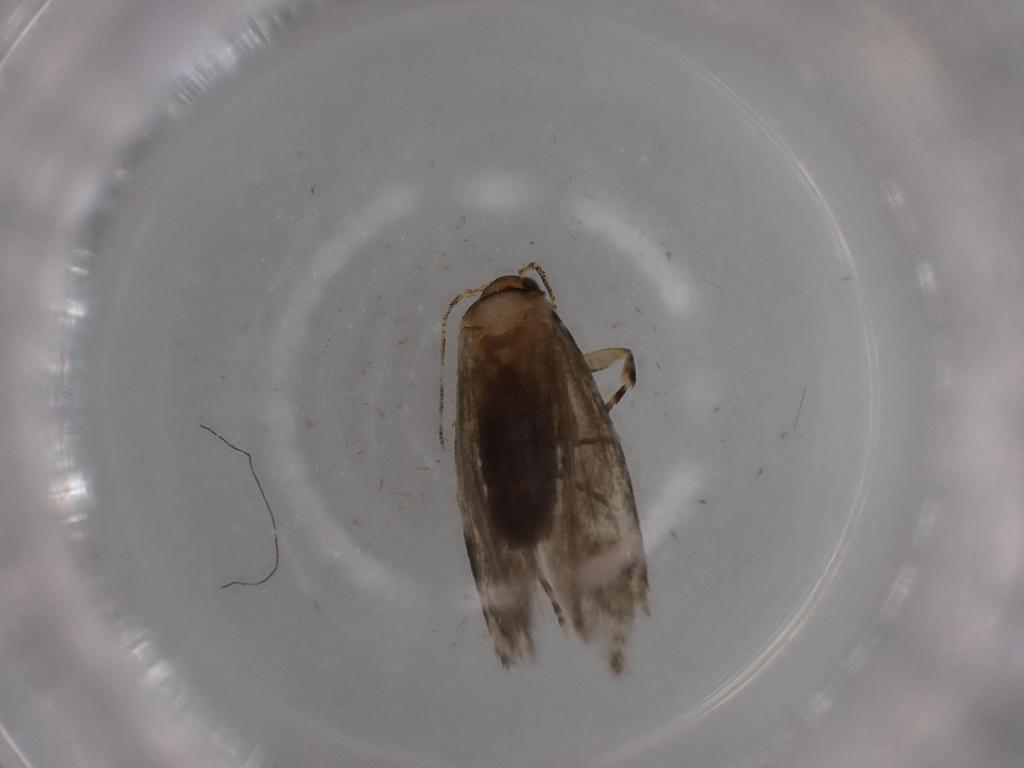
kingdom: Animalia
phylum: Arthropoda
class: Insecta
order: Lepidoptera
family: Tineidae
